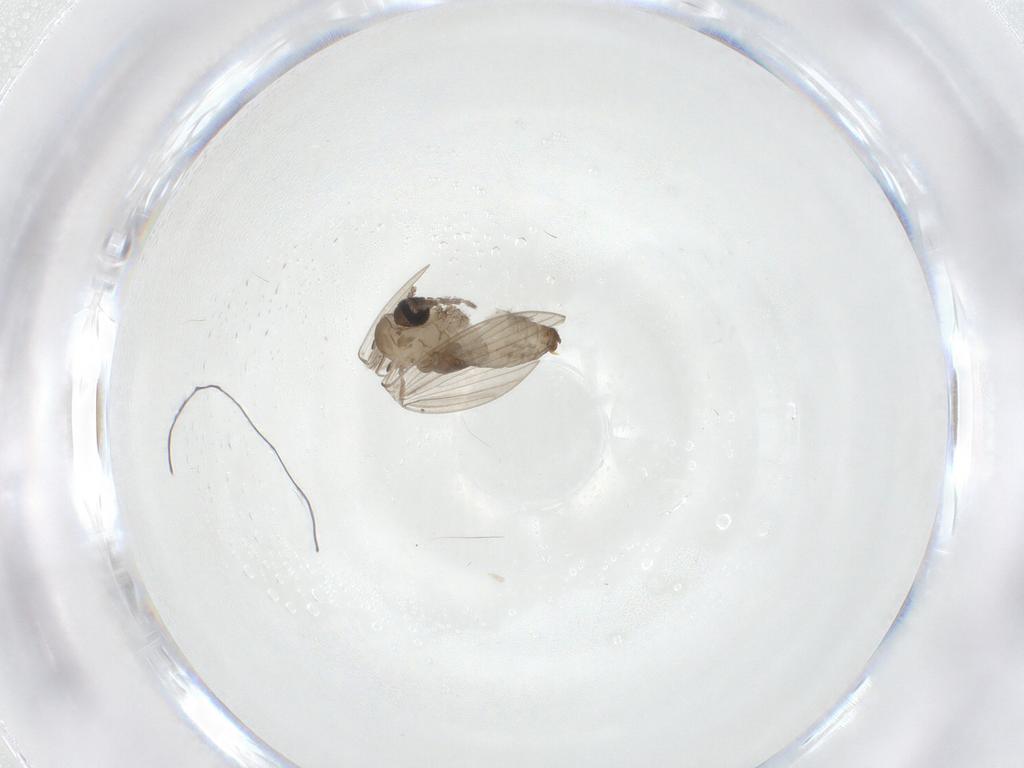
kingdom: Animalia
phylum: Arthropoda
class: Insecta
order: Diptera
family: Psychodidae
